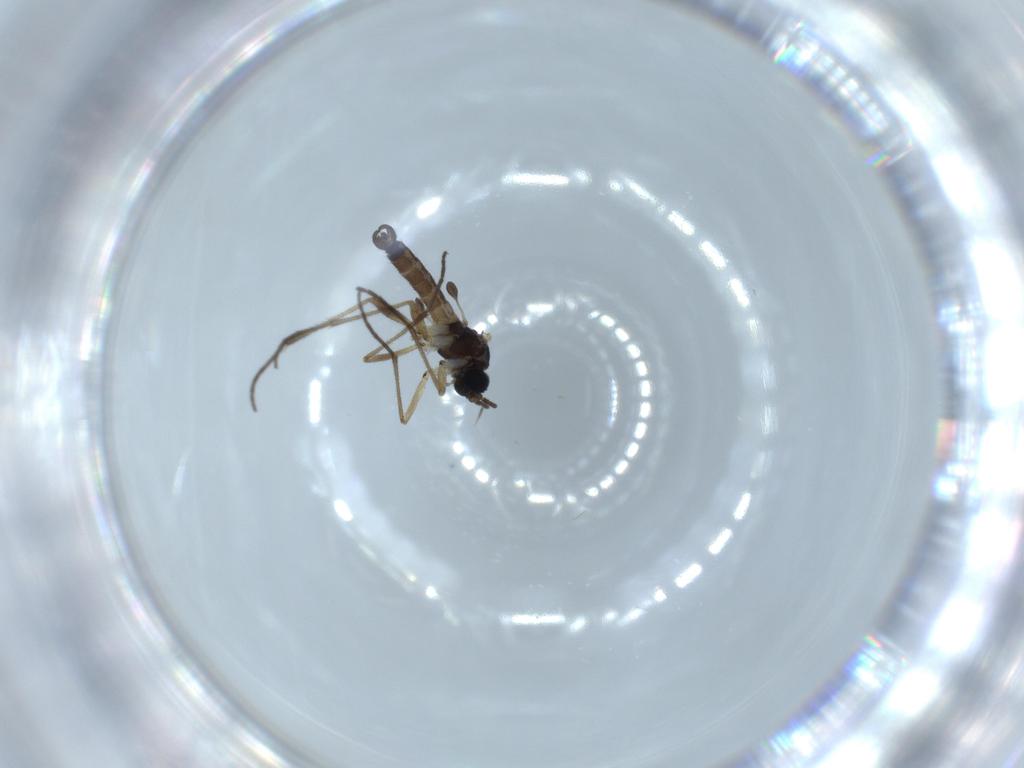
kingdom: Animalia
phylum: Arthropoda
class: Insecta
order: Diptera
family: Sciaridae
